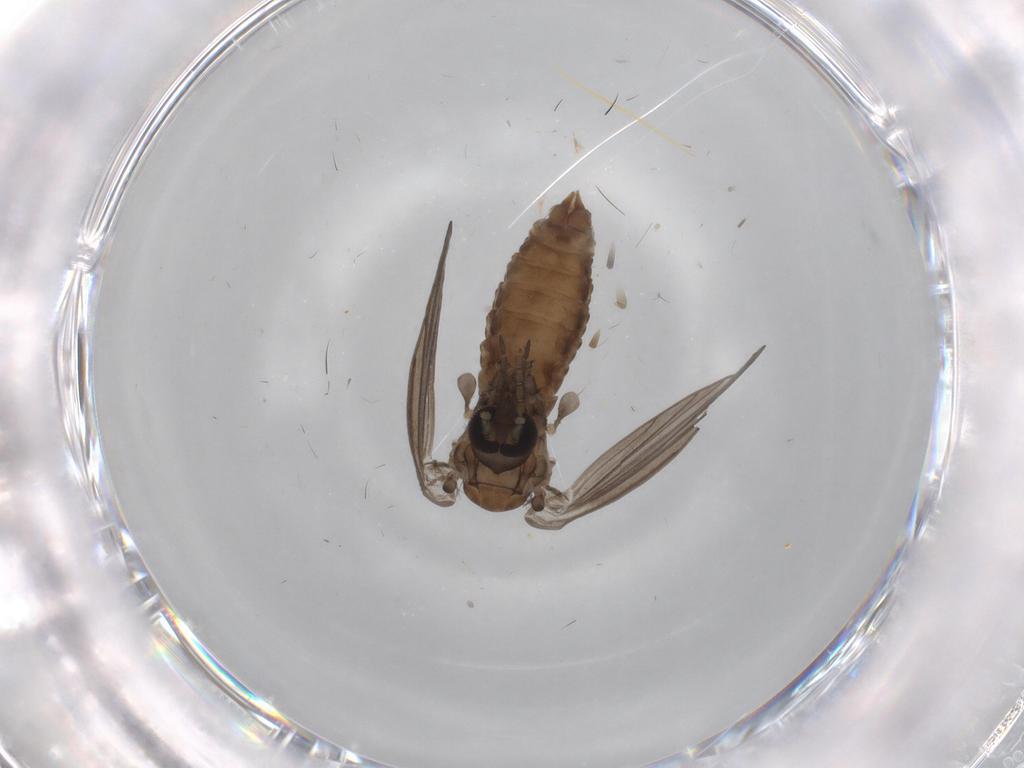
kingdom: Animalia
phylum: Arthropoda
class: Insecta
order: Diptera
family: Psychodidae
